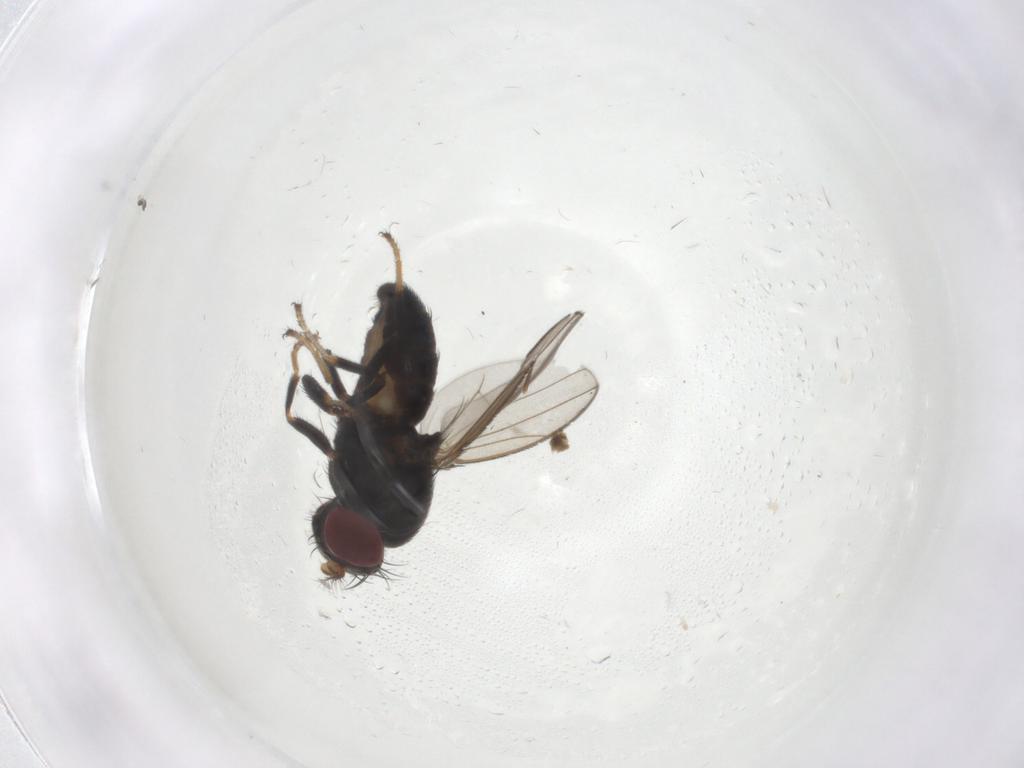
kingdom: Animalia
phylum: Arthropoda
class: Insecta
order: Diptera
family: Ephydridae
